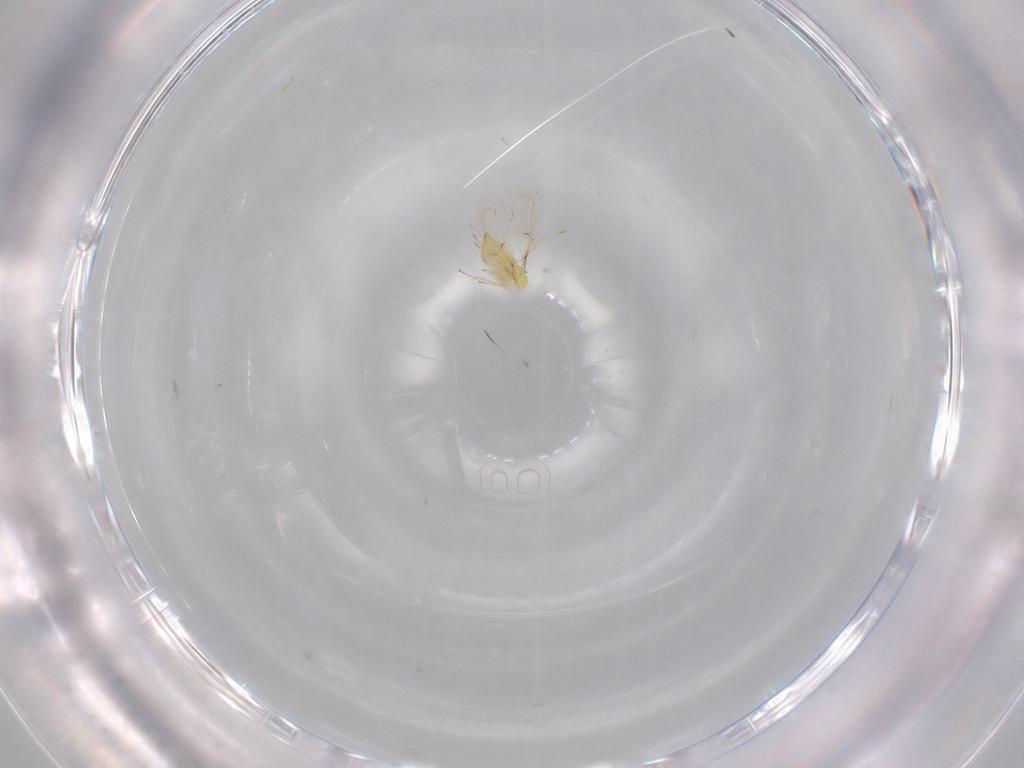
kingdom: Animalia
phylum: Arthropoda
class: Insecta
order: Hymenoptera
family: Trichogrammatidae
